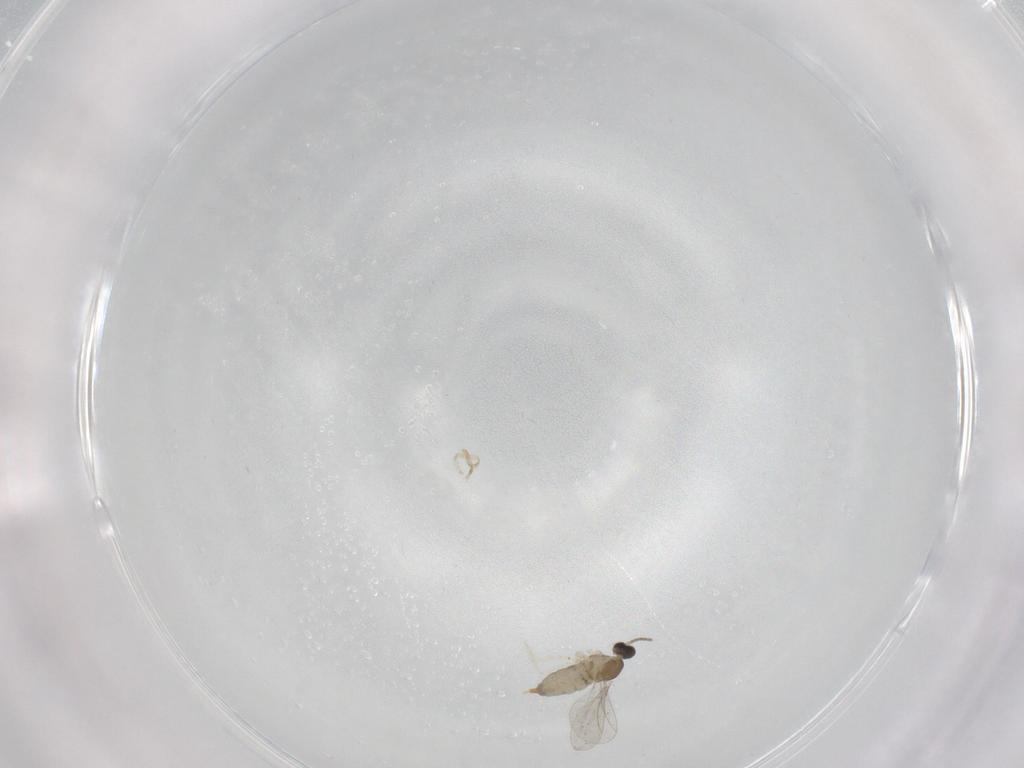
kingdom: Animalia
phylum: Arthropoda
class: Insecta
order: Diptera
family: Cecidomyiidae
